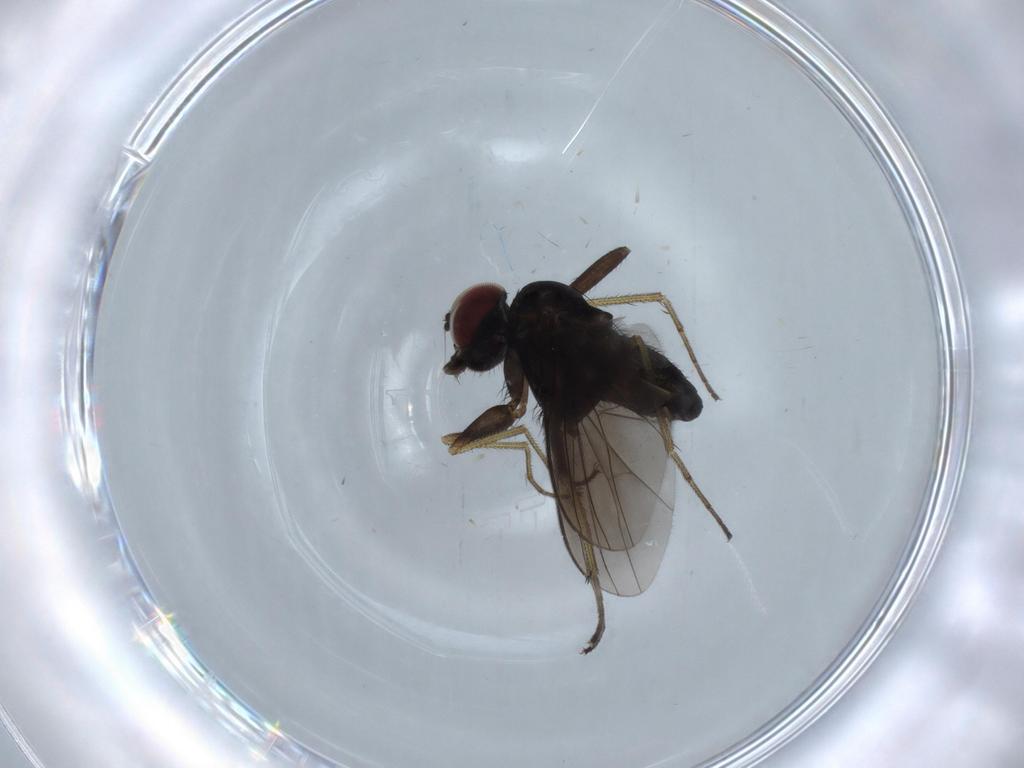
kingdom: Animalia
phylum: Arthropoda
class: Insecta
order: Diptera
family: Dolichopodidae
